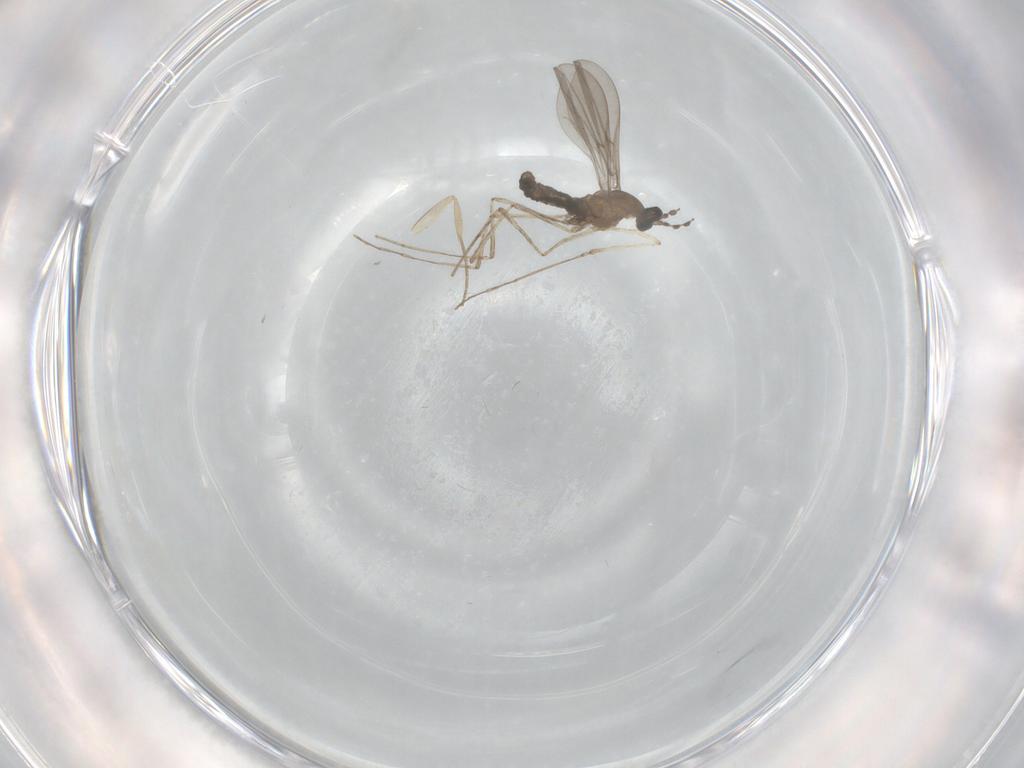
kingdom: Animalia
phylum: Arthropoda
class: Insecta
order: Diptera
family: Cecidomyiidae
